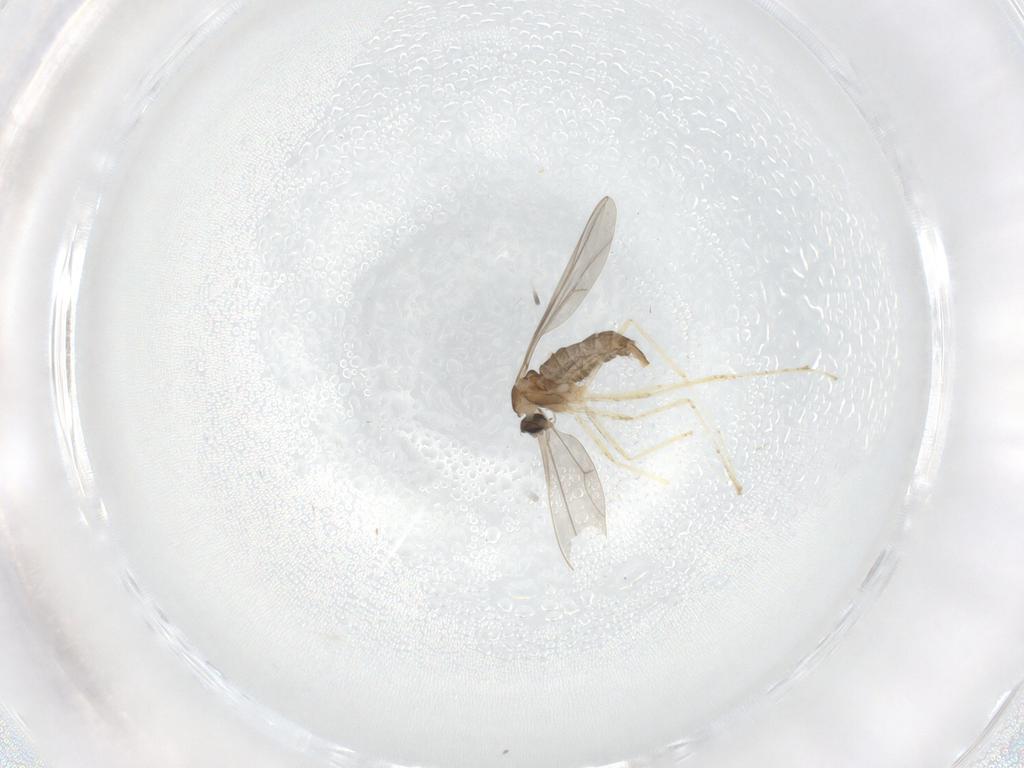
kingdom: Animalia
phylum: Arthropoda
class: Insecta
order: Diptera
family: Cecidomyiidae
